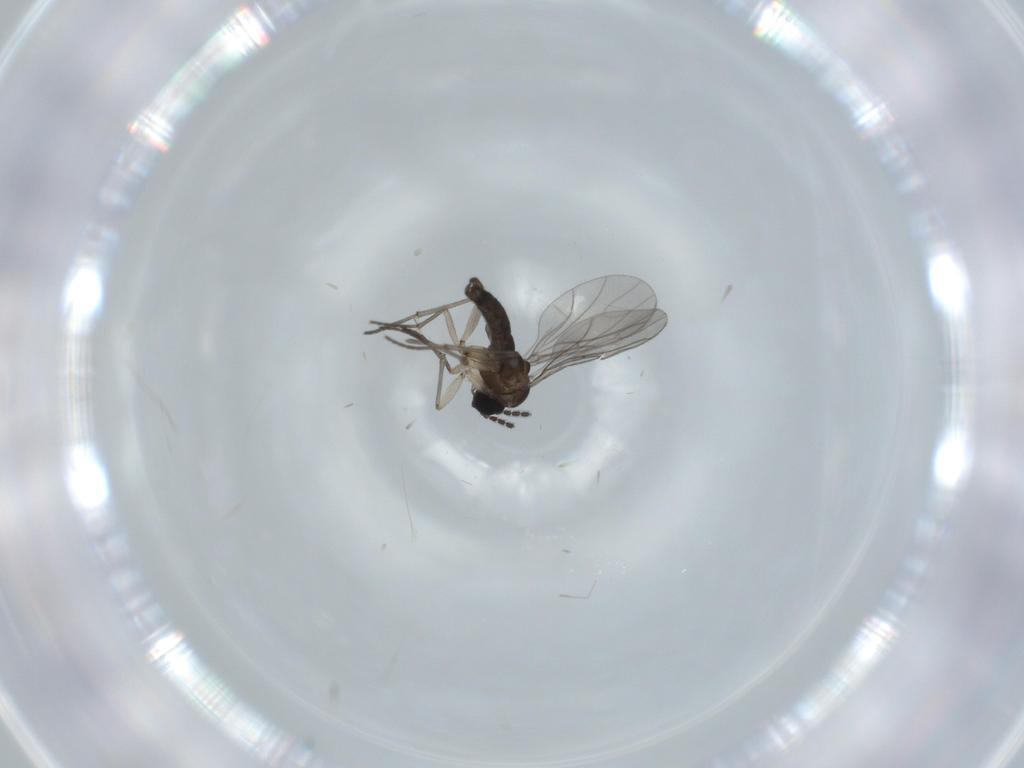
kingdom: Animalia
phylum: Arthropoda
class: Insecta
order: Diptera
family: Sciaridae
